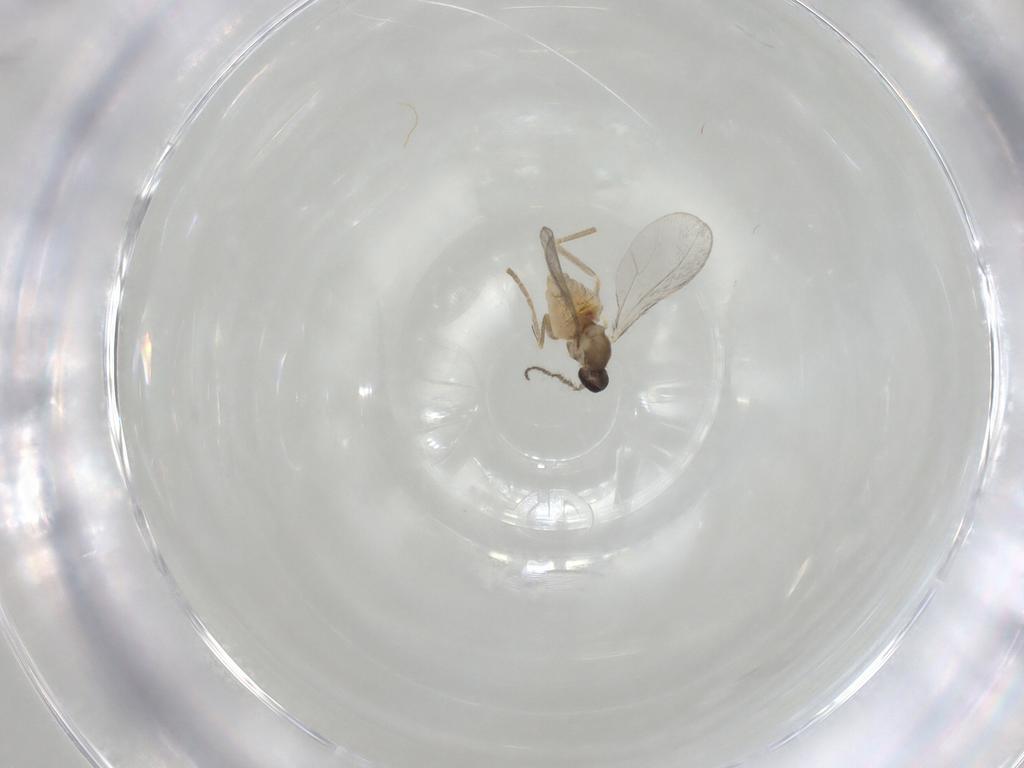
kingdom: Animalia
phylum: Arthropoda
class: Insecta
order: Diptera
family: Cecidomyiidae
